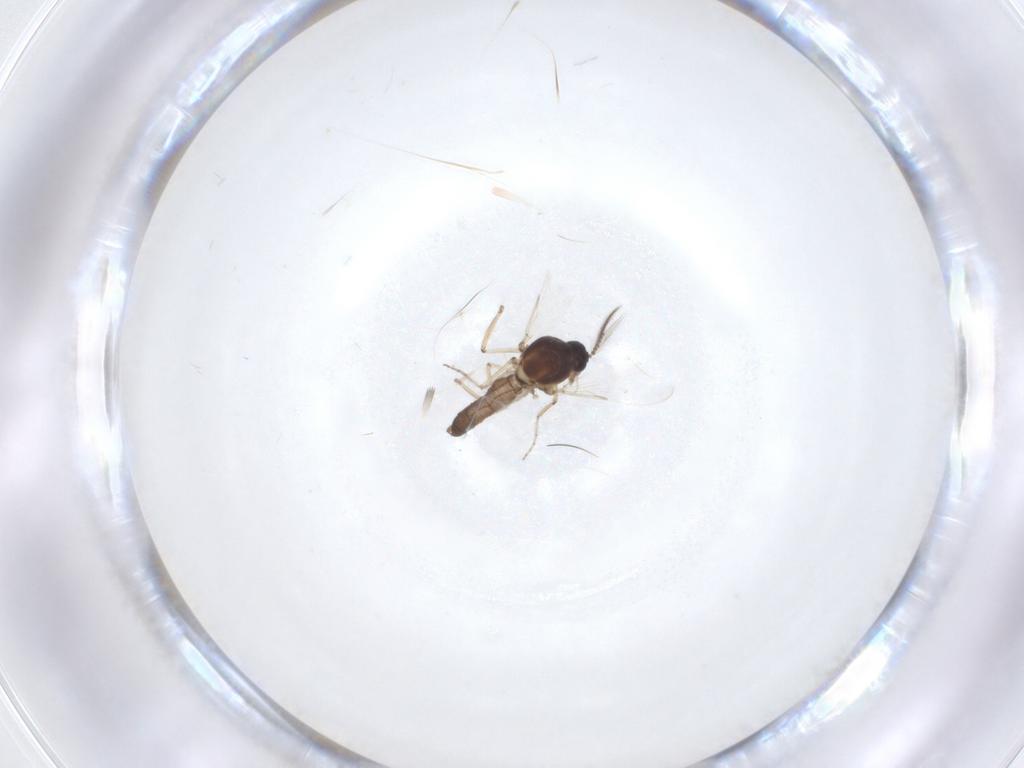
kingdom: Animalia
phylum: Arthropoda
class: Insecta
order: Diptera
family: Ceratopogonidae
